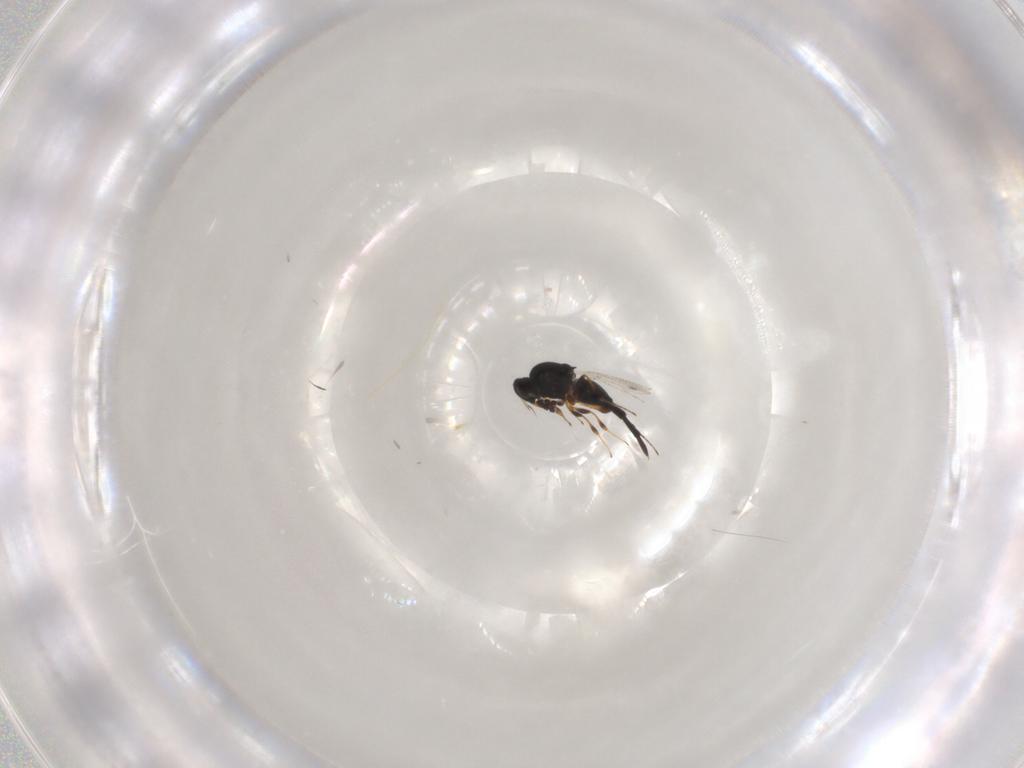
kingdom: Animalia
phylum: Arthropoda
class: Insecta
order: Hymenoptera
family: Platygastridae
